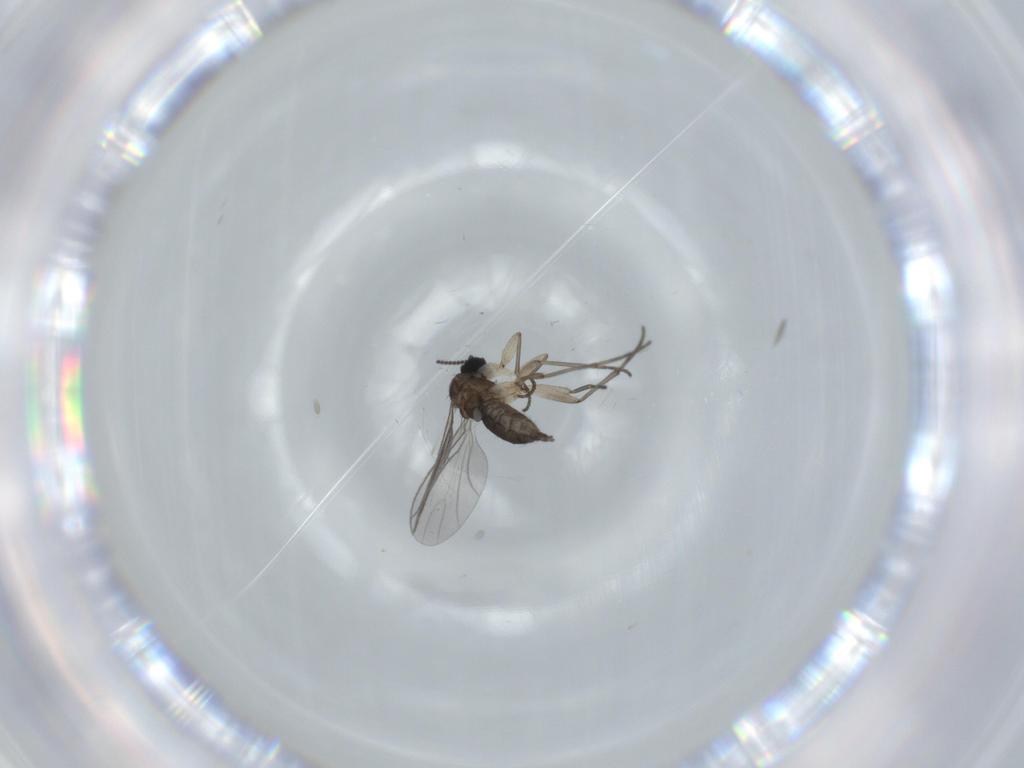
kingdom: Animalia
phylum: Arthropoda
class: Insecta
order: Diptera
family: Sciaridae
